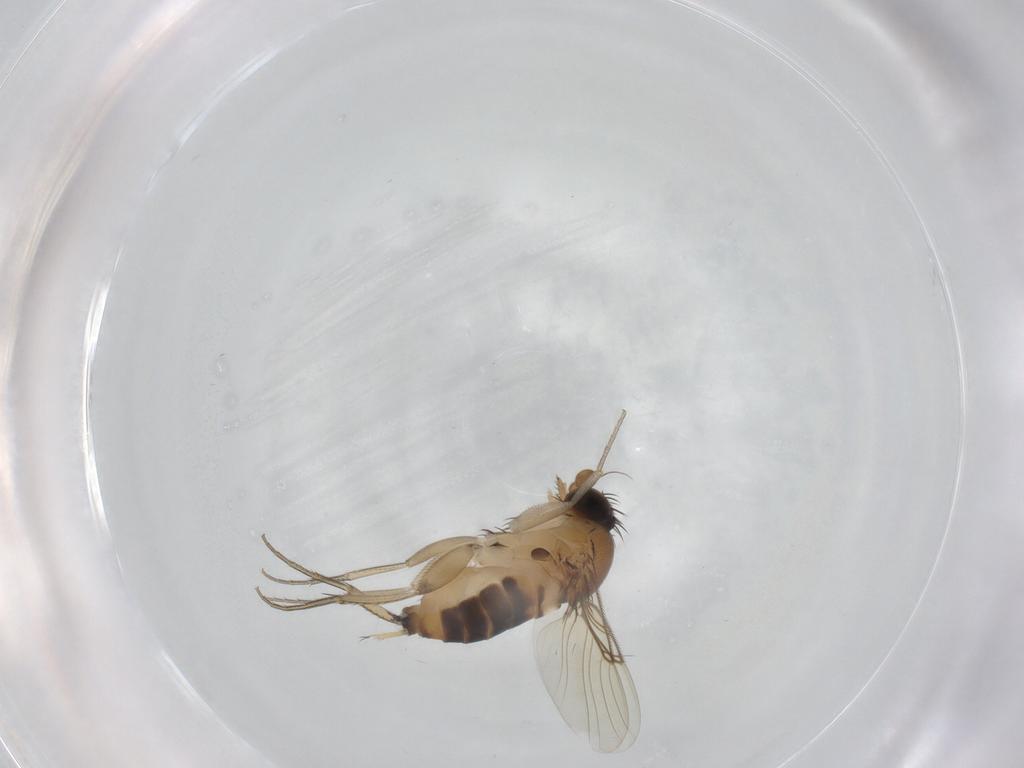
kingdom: Animalia
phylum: Arthropoda
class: Insecta
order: Diptera
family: Phoridae
